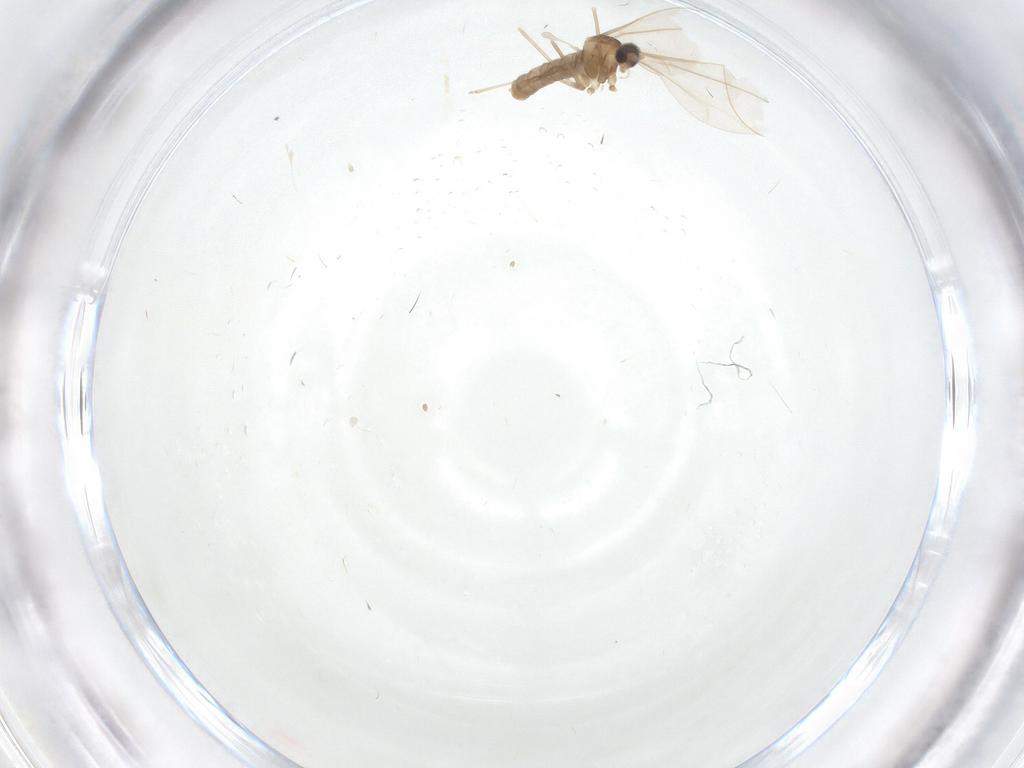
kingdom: Animalia
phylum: Arthropoda
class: Insecta
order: Diptera
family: Cecidomyiidae
